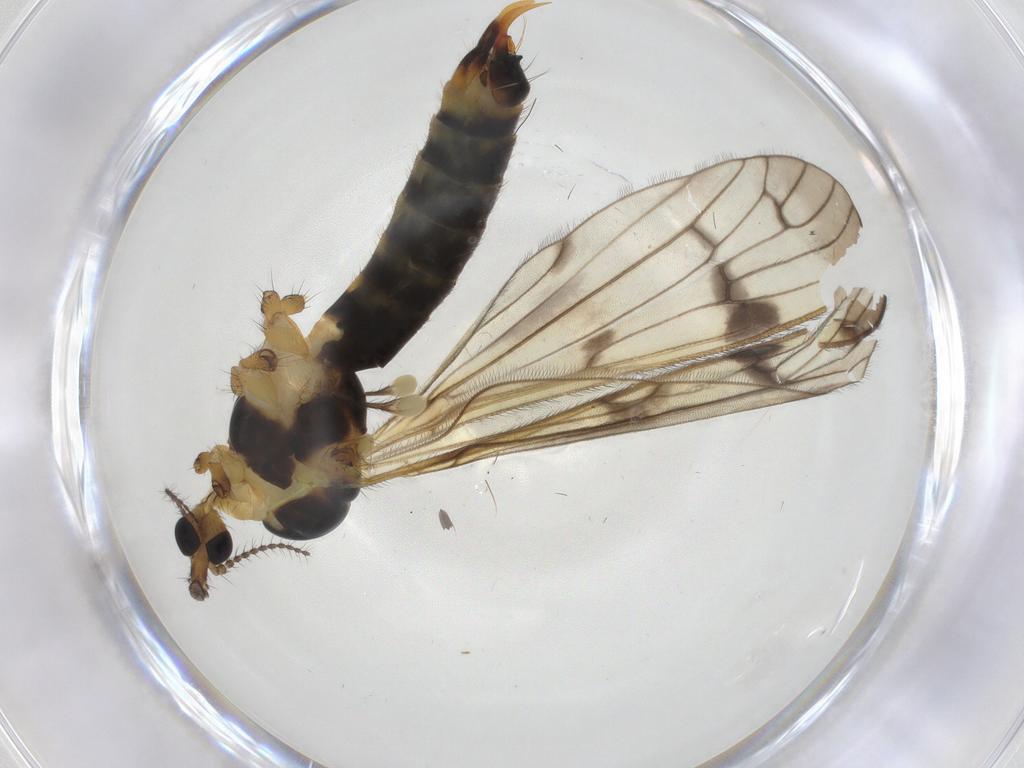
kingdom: Animalia
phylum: Arthropoda
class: Insecta
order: Diptera
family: Limoniidae
